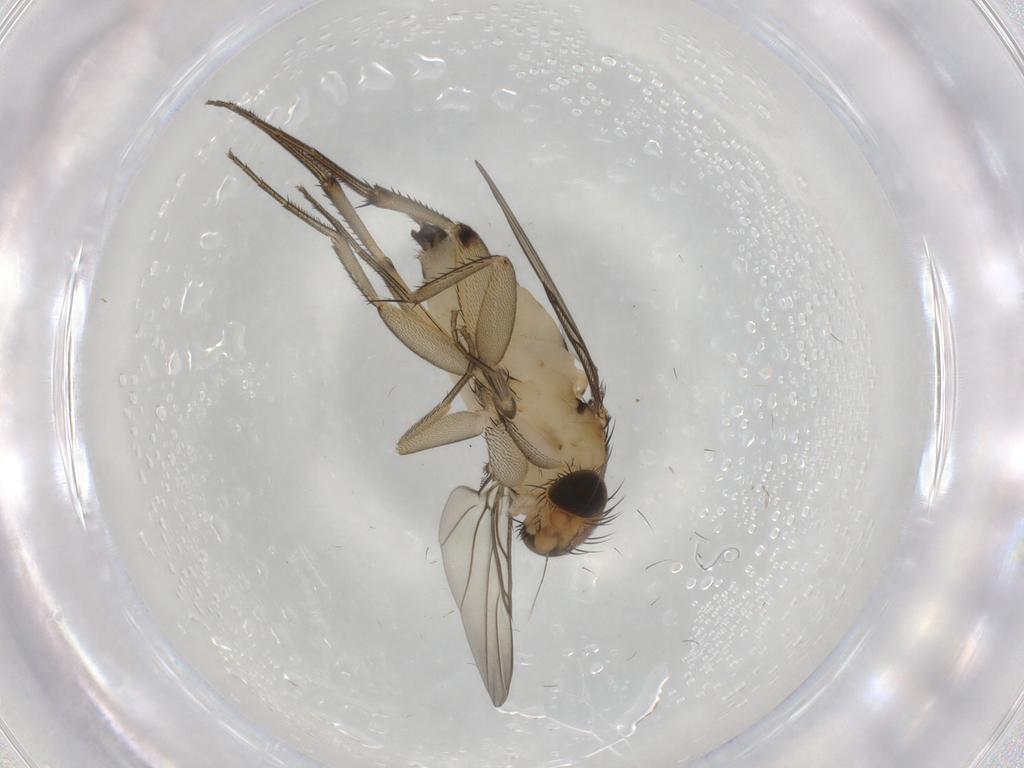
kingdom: Animalia
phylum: Arthropoda
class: Insecta
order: Diptera
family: Phoridae
